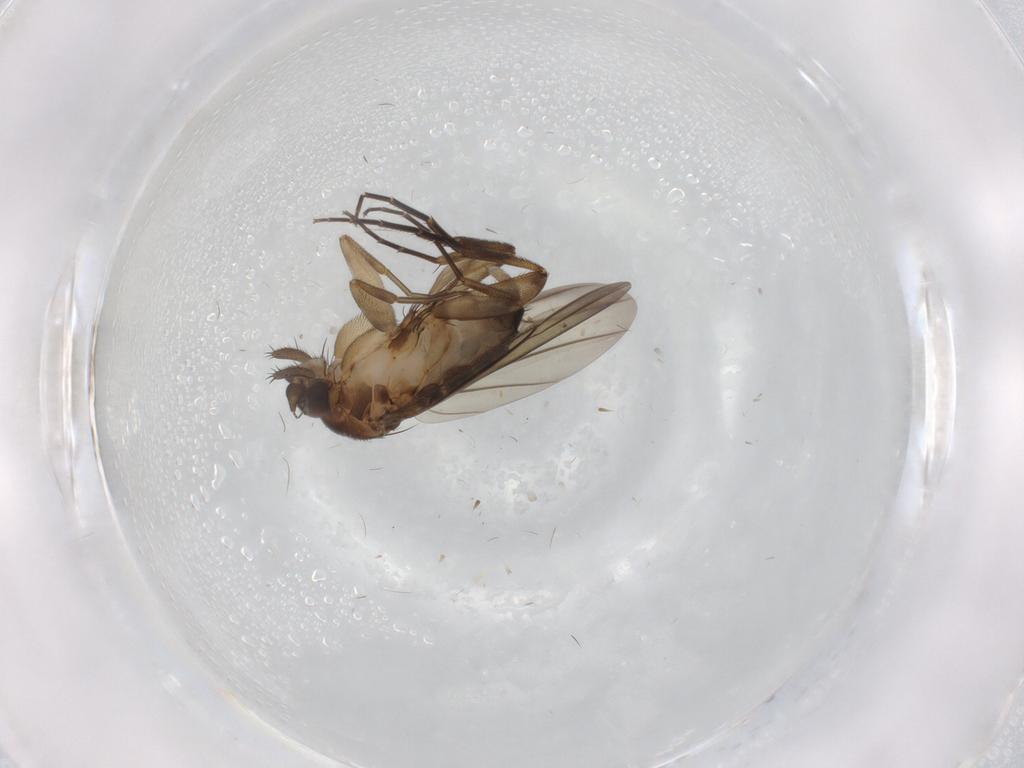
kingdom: Animalia
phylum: Arthropoda
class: Insecta
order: Diptera
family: Phoridae
